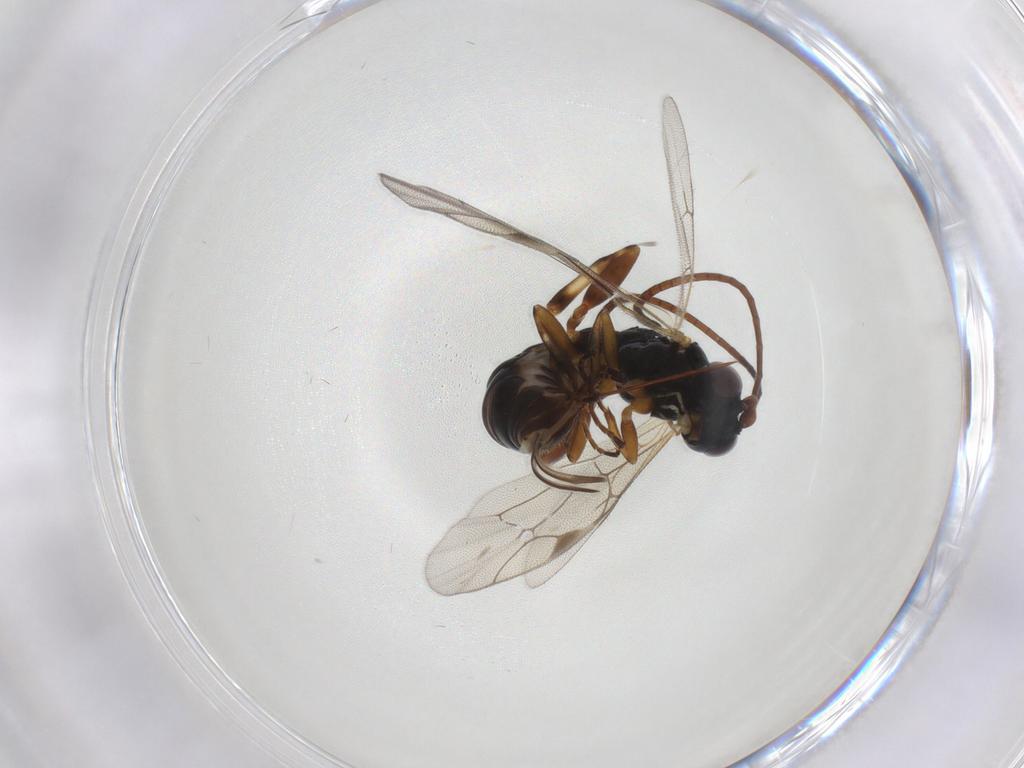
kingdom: Animalia
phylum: Arthropoda
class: Insecta
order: Hymenoptera
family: Ichneumonidae
